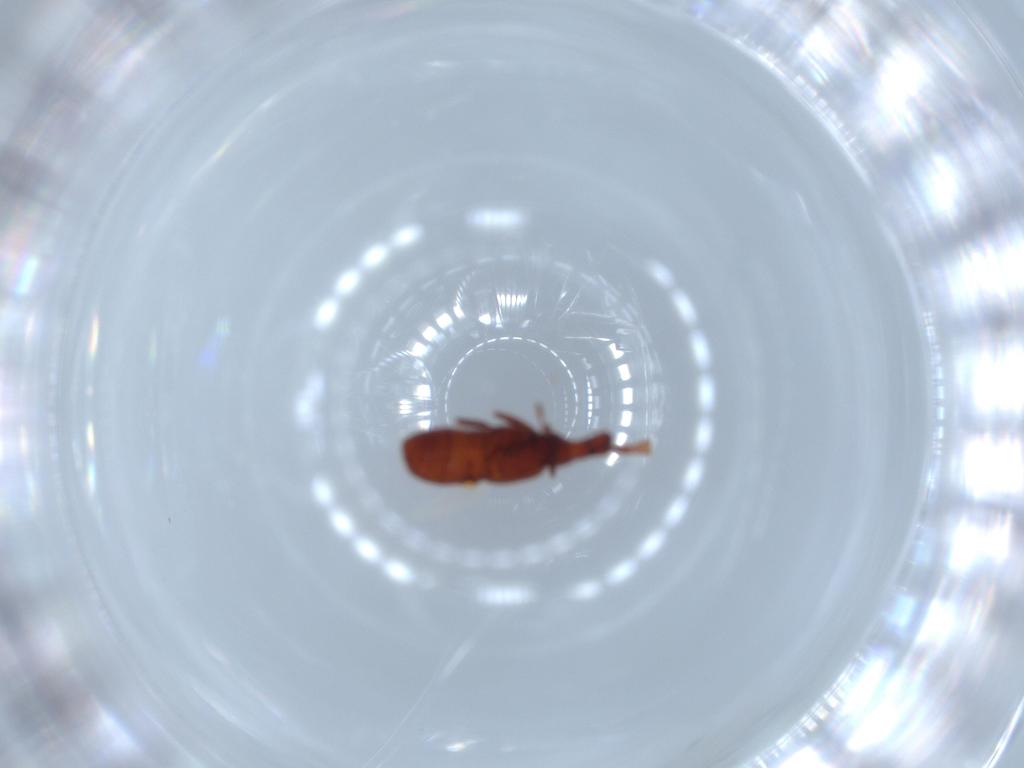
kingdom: Animalia
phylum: Arthropoda
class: Insecta
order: Coleoptera
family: Staphylinidae
